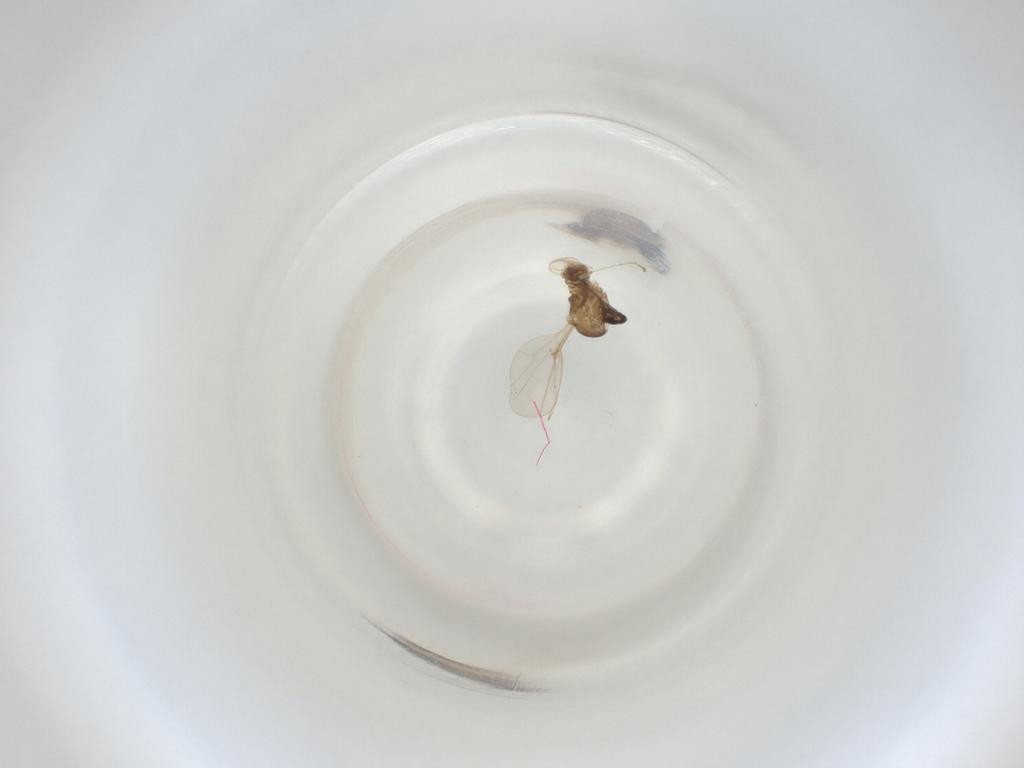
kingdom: Animalia
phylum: Arthropoda
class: Insecta
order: Diptera
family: Cecidomyiidae
